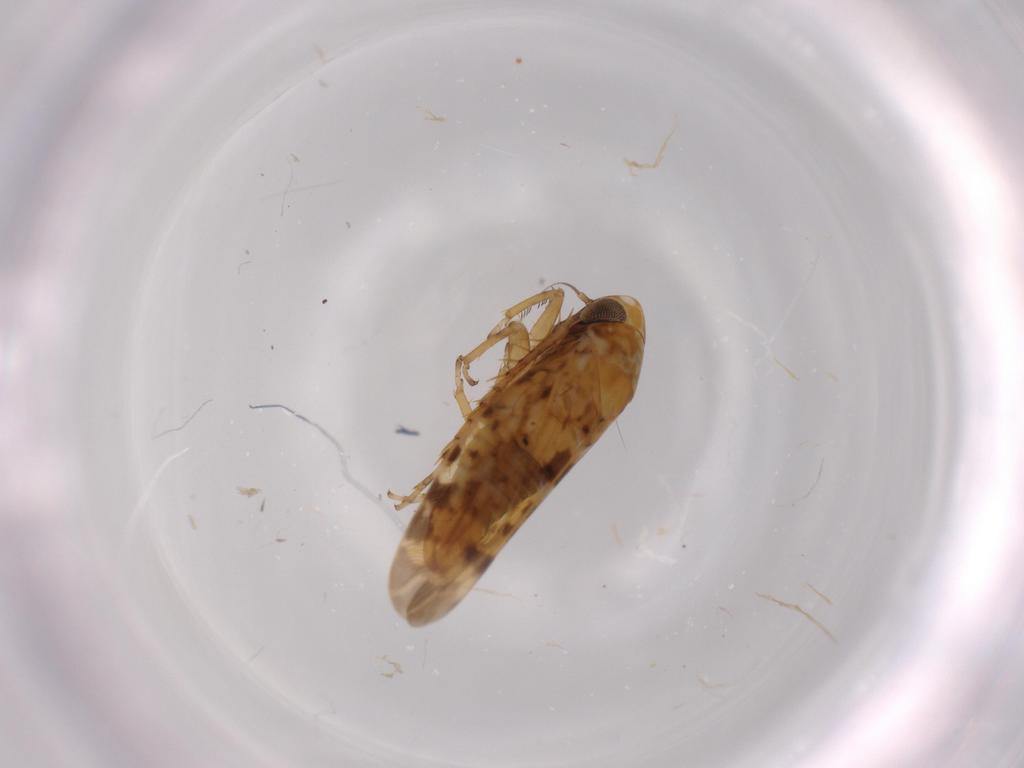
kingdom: Animalia
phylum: Arthropoda
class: Insecta
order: Hemiptera
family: Cicadellidae
